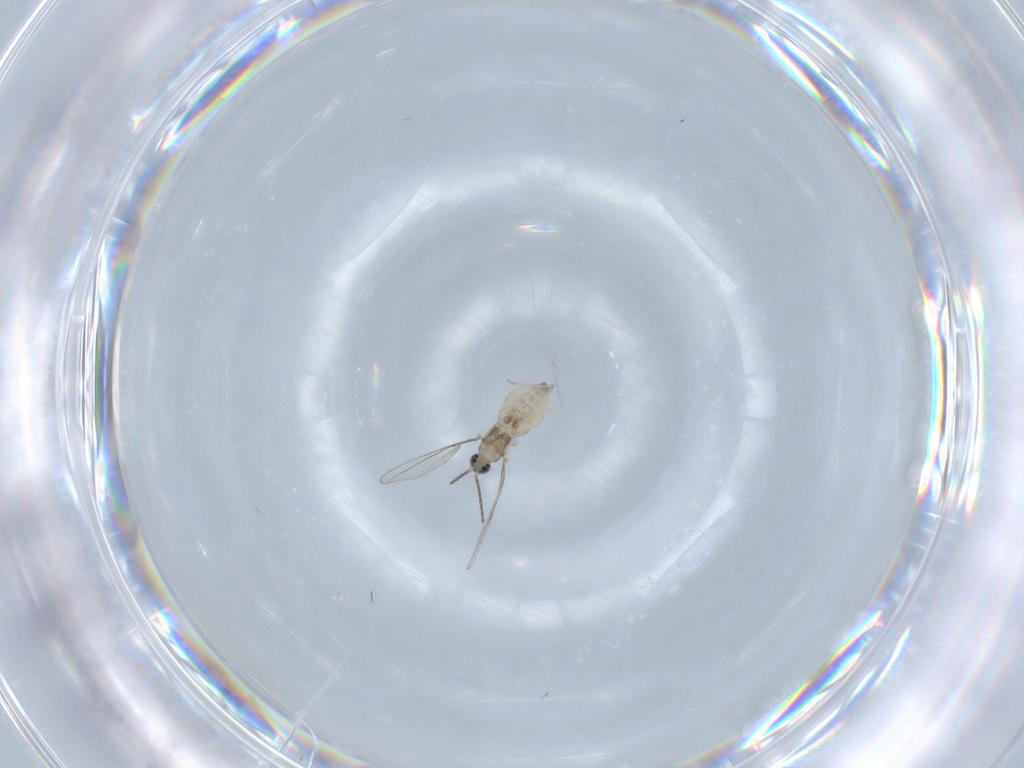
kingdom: Animalia
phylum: Arthropoda
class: Insecta
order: Diptera
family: Cecidomyiidae
